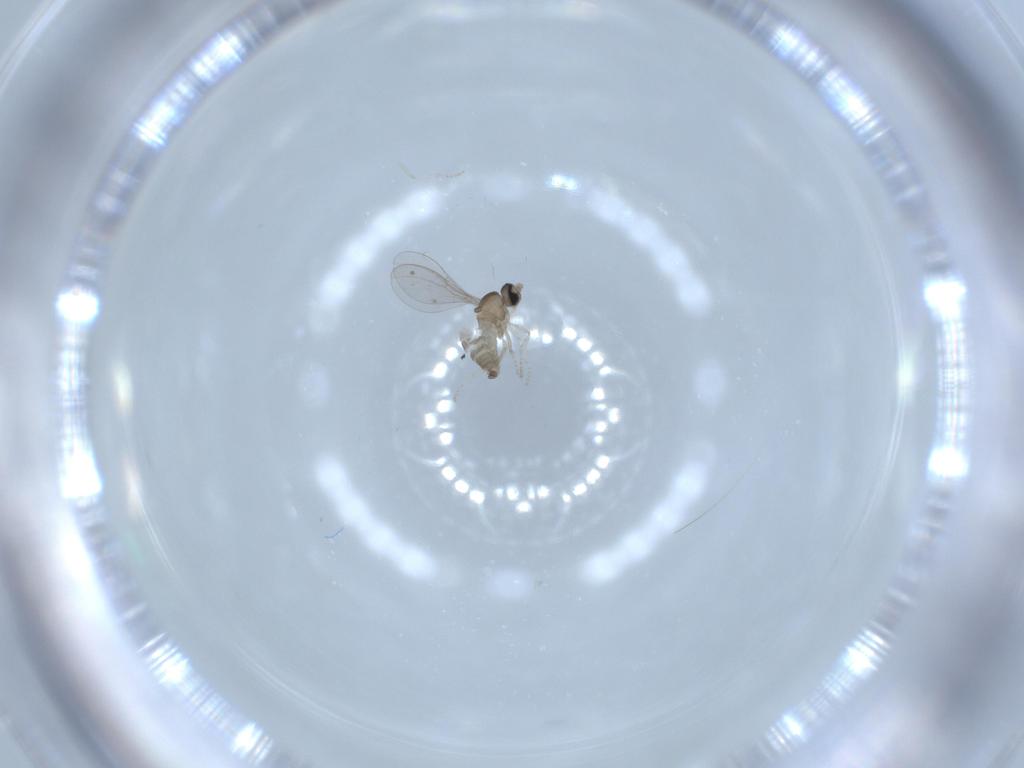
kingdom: Animalia
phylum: Arthropoda
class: Insecta
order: Diptera
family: Cecidomyiidae
